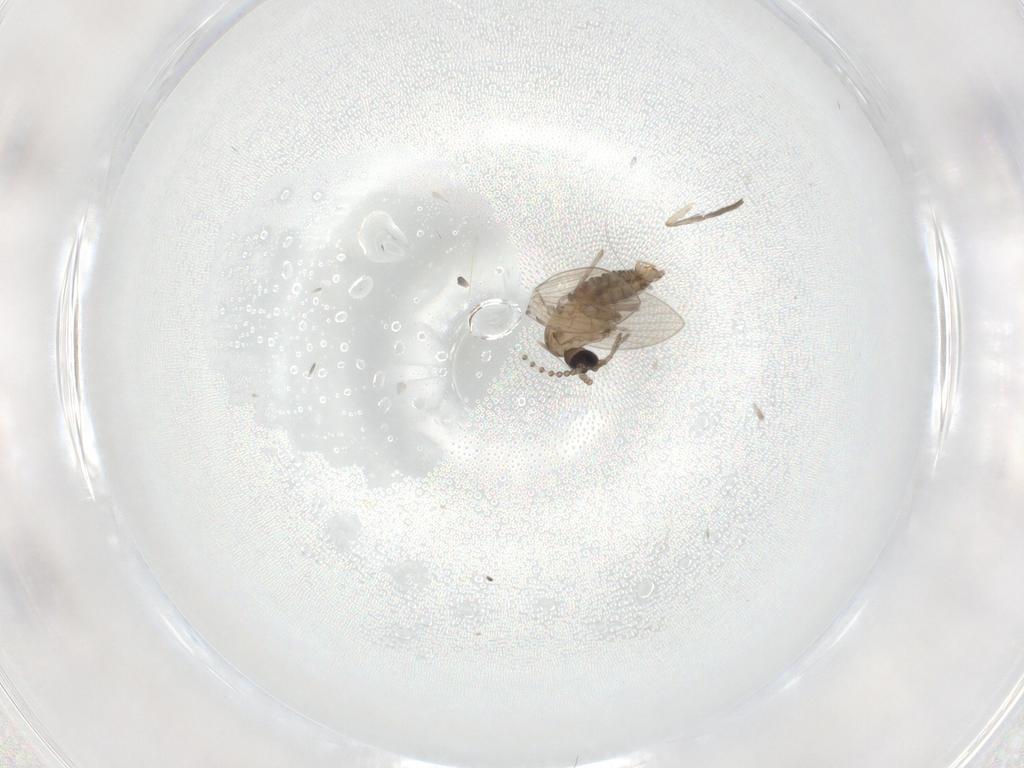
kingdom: Animalia
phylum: Arthropoda
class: Insecta
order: Diptera
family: Drosophilidae
